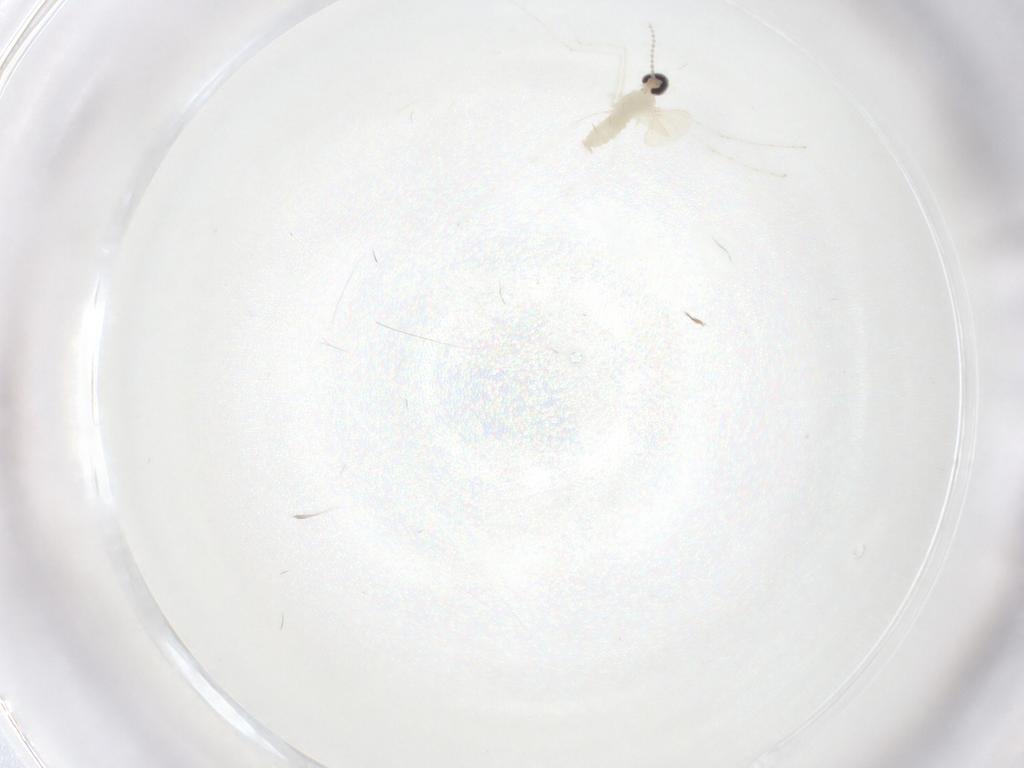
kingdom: Animalia
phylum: Arthropoda
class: Insecta
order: Diptera
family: Cecidomyiidae
